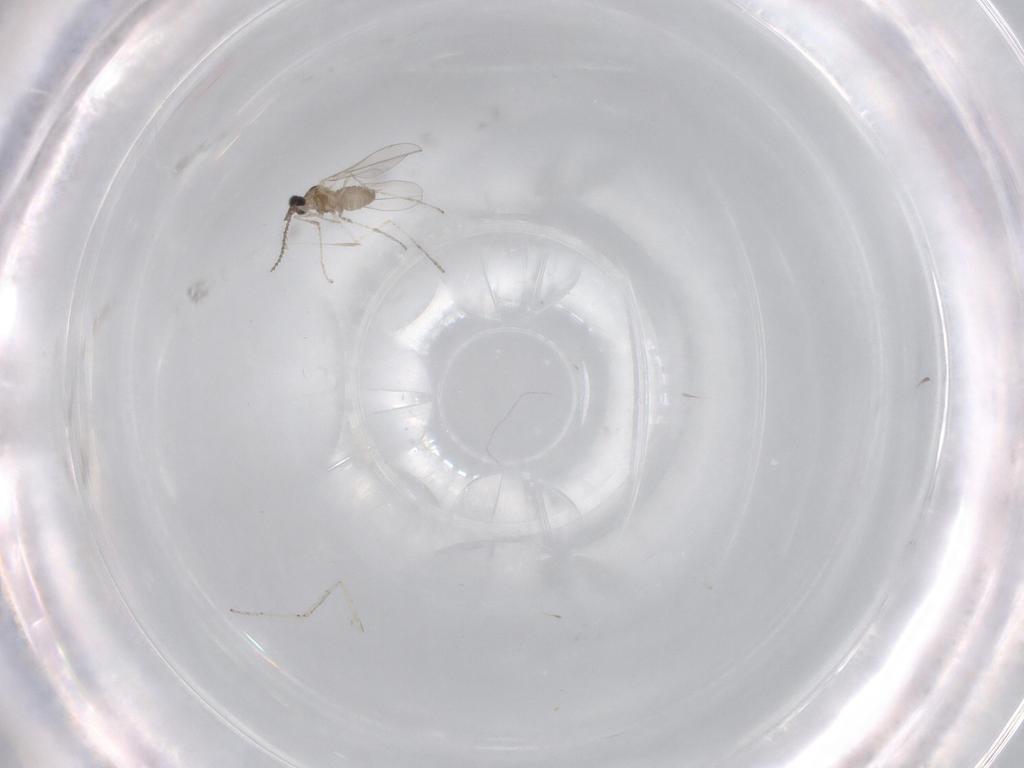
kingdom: Animalia
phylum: Arthropoda
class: Insecta
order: Diptera
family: Cecidomyiidae
